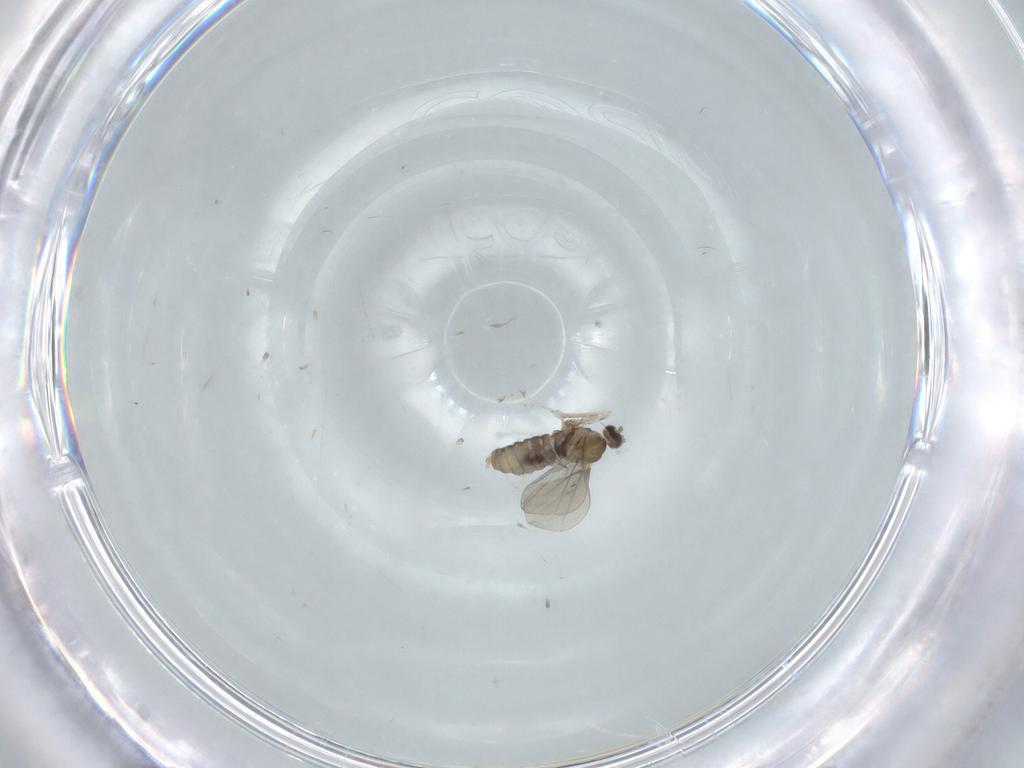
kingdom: Animalia
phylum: Arthropoda
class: Insecta
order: Diptera
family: Ceratopogonidae
